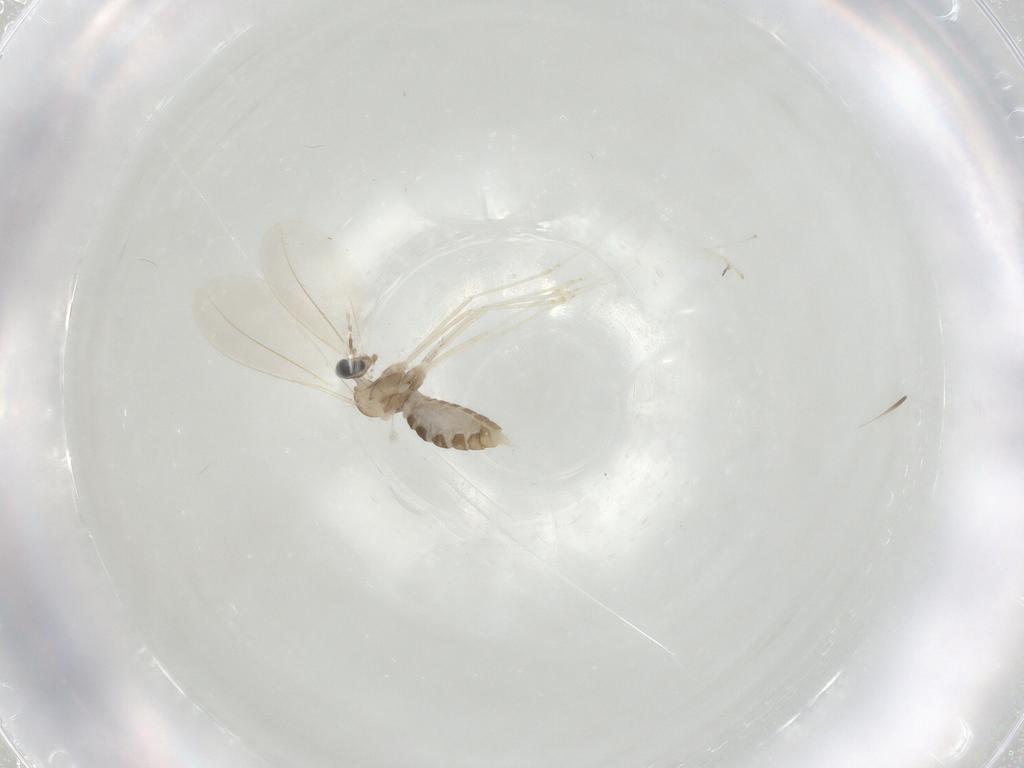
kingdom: Animalia
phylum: Arthropoda
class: Insecta
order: Diptera
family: Cecidomyiidae
